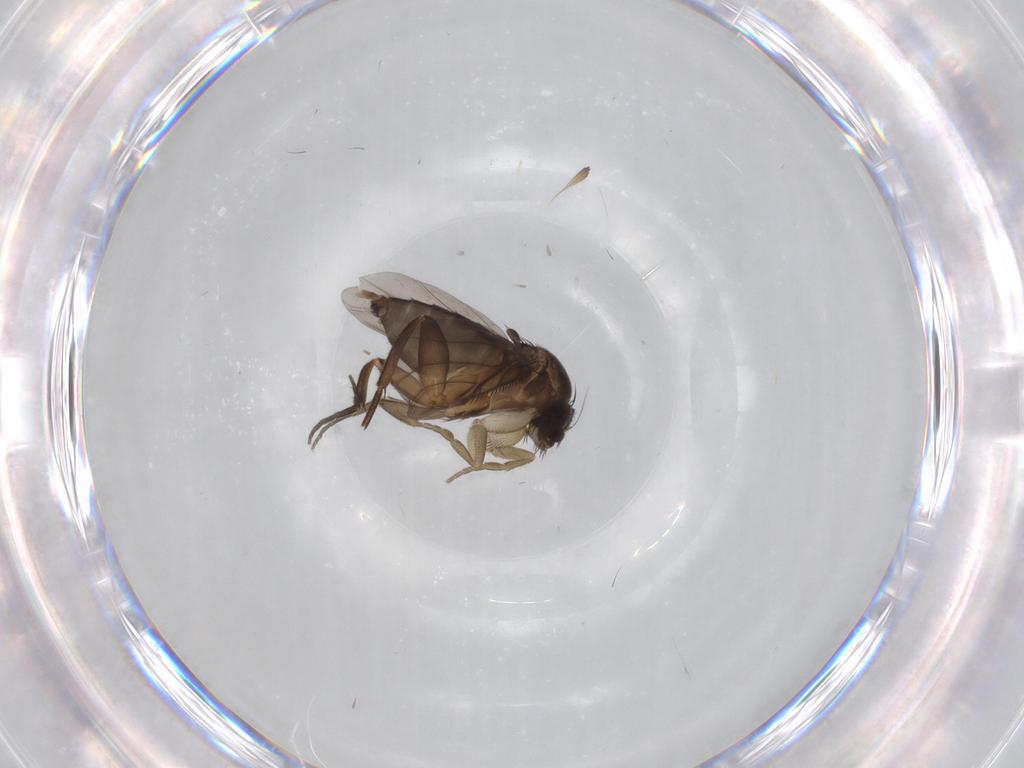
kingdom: Animalia
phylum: Arthropoda
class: Insecta
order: Diptera
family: Phoridae
